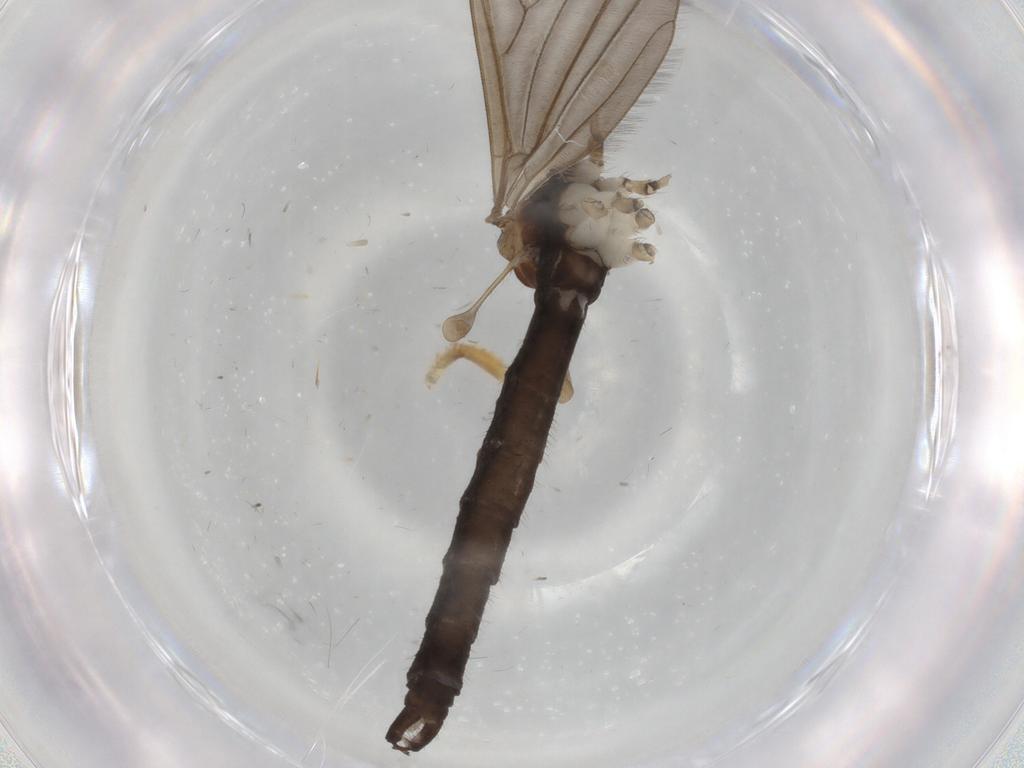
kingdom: Animalia
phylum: Arthropoda
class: Insecta
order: Diptera
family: Limoniidae
